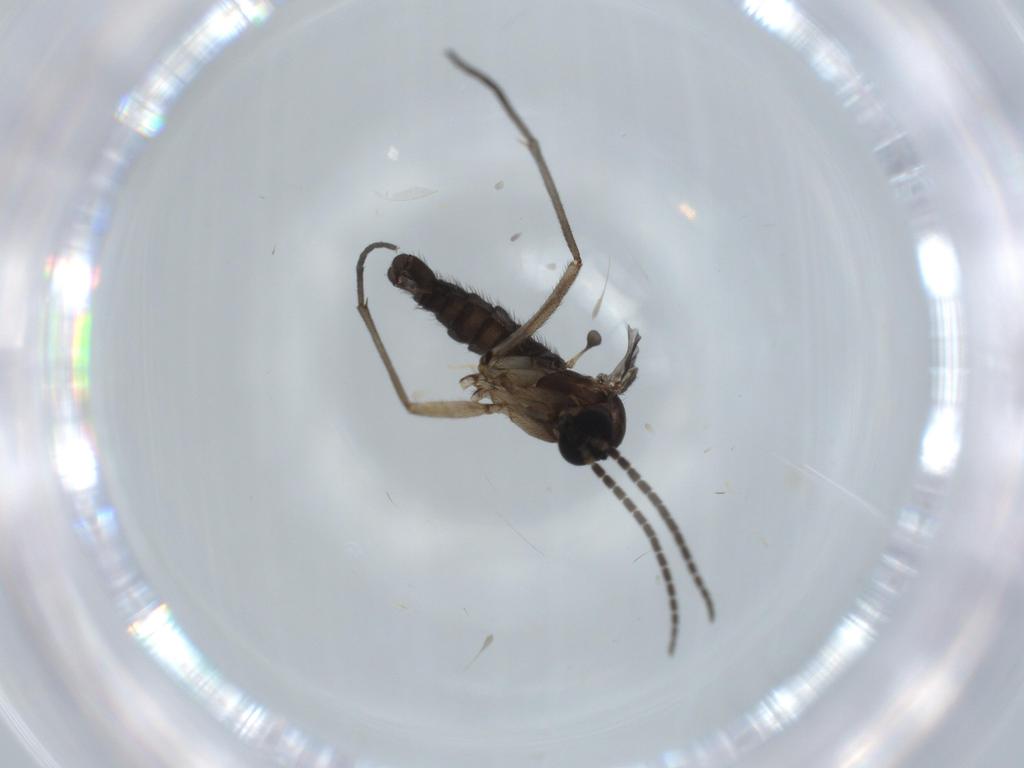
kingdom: Animalia
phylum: Arthropoda
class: Insecta
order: Diptera
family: Sciaridae
